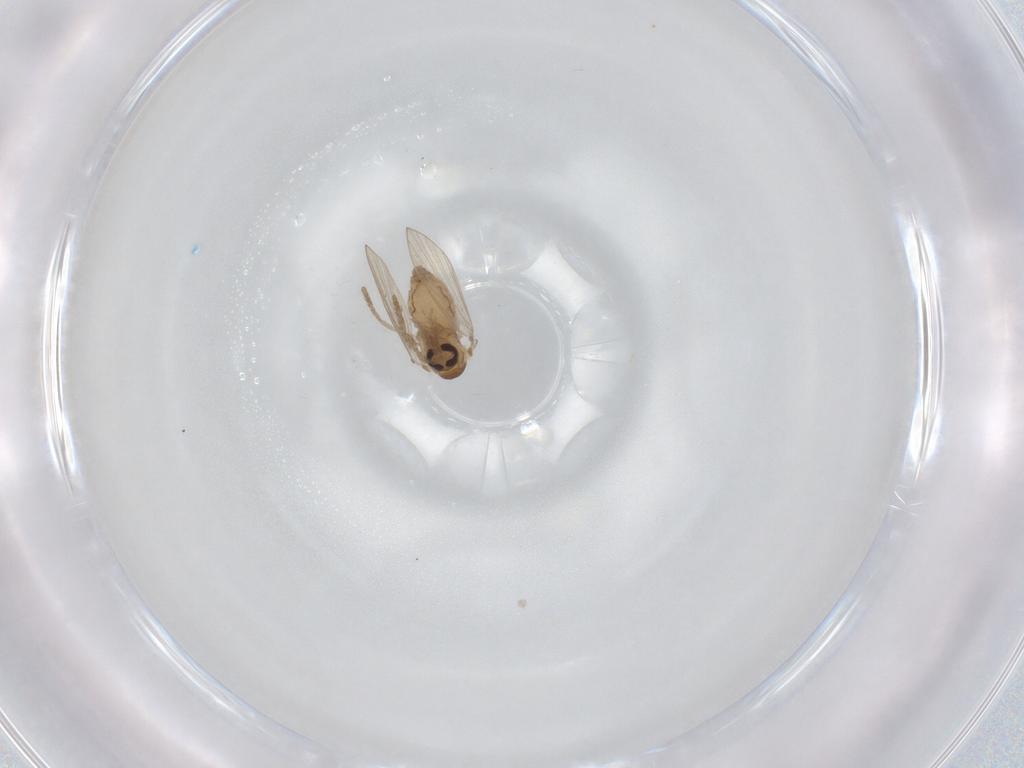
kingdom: Animalia
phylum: Arthropoda
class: Insecta
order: Diptera
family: Psychodidae
